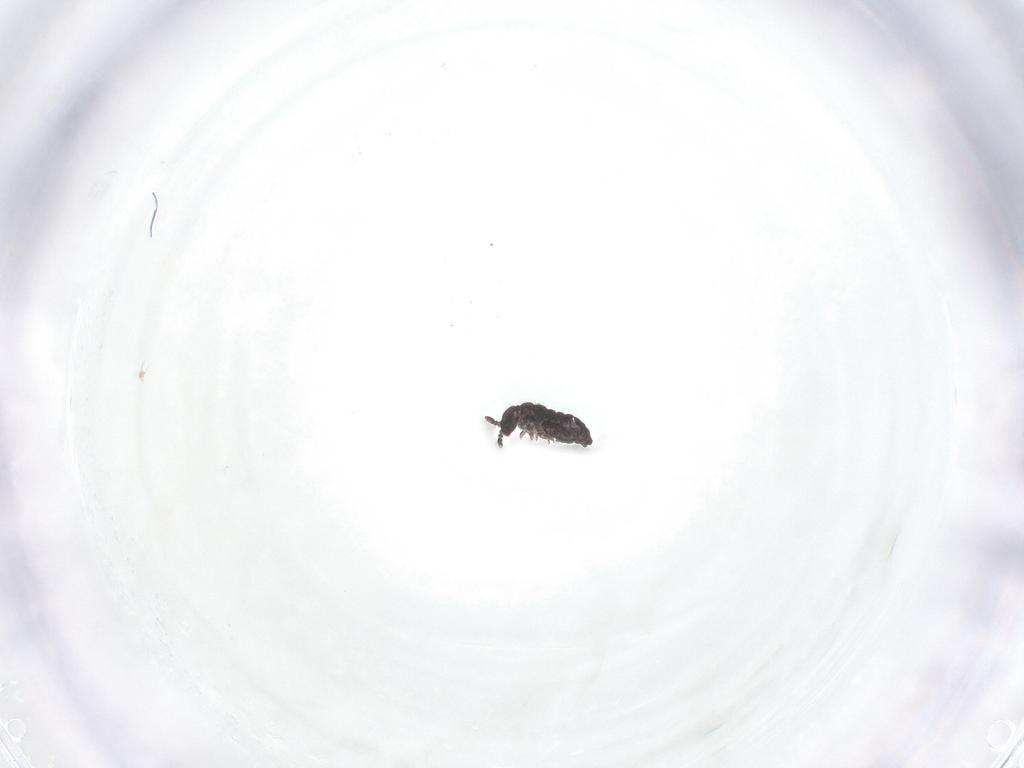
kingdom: Animalia
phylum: Arthropoda
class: Collembola
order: Poduromorpha
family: Hypogastruridae
